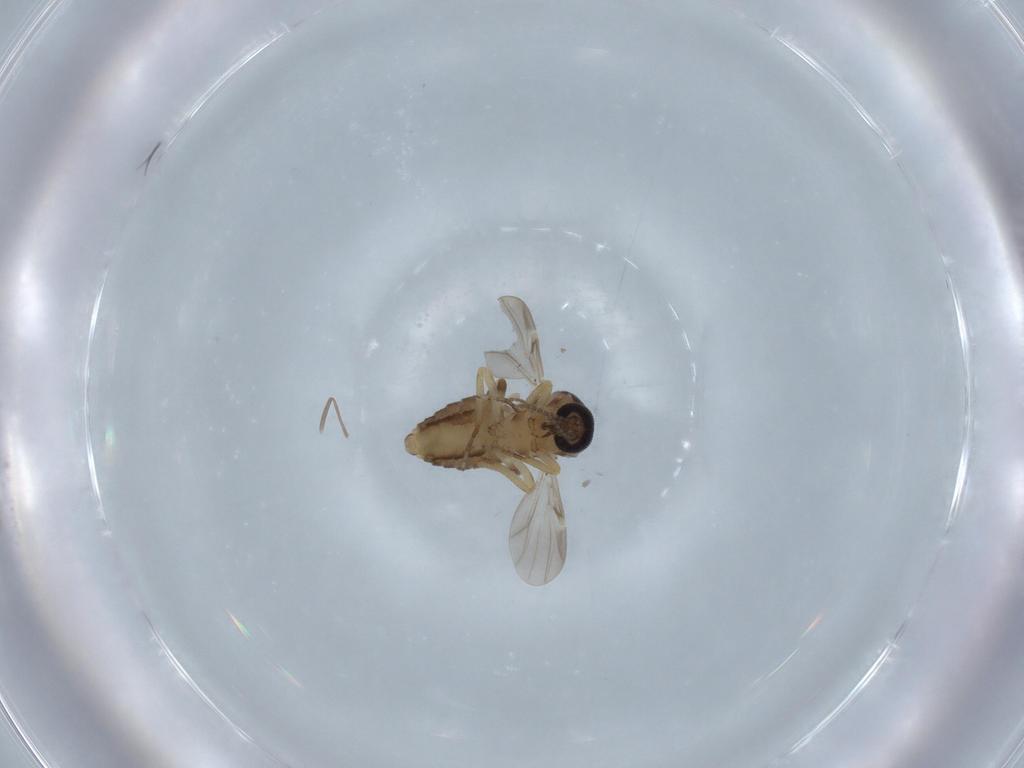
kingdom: Animalia
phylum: Arthropoda
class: Insecta
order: Diptera
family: Ceratopogonidae
